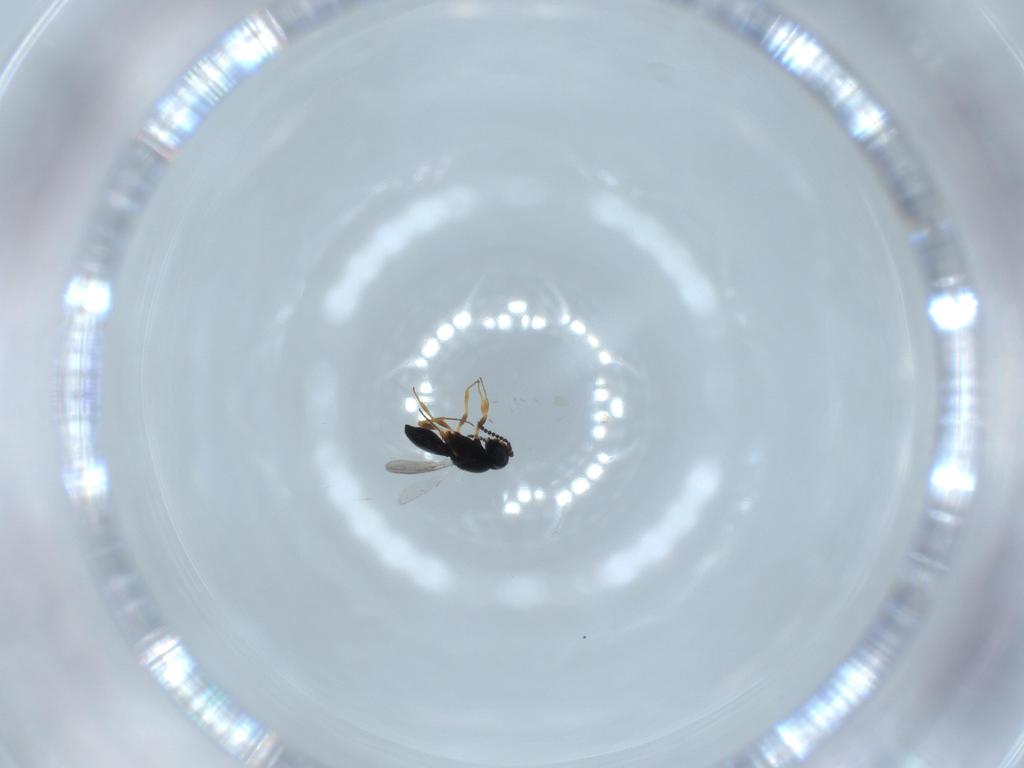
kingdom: Animalia
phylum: Arthropoda
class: Insecta
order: Hymenoptera
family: Scelionidae
